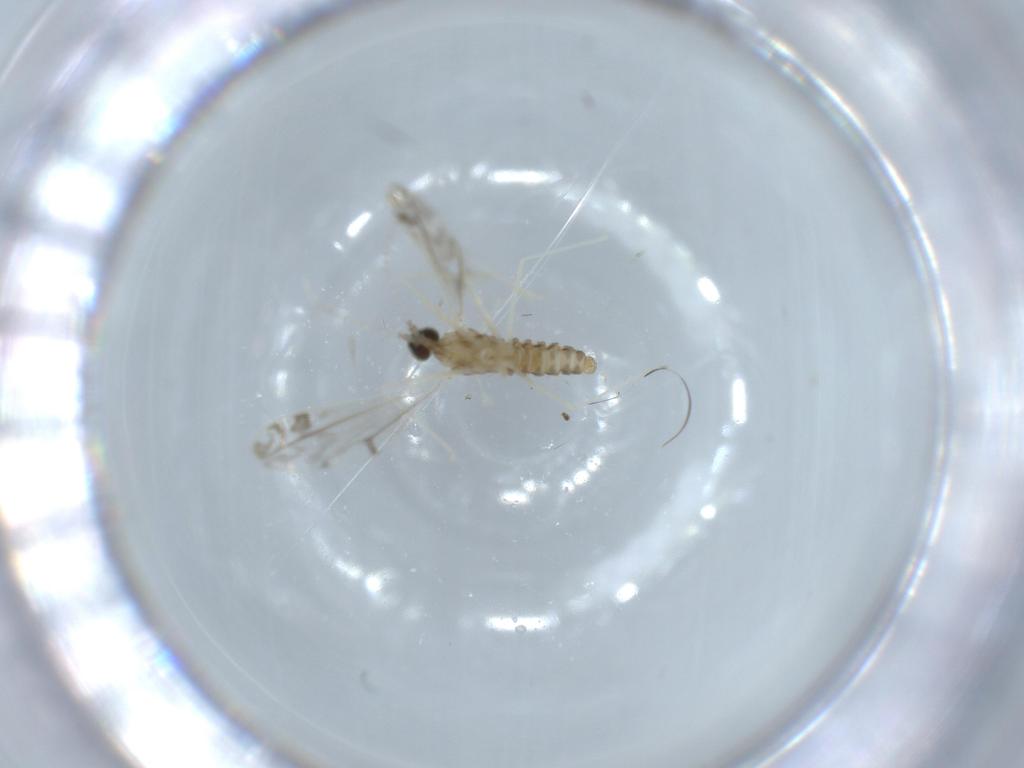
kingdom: Animalia
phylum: Arthropoda
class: Insecta
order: Diptera
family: Cecidomyiidae
